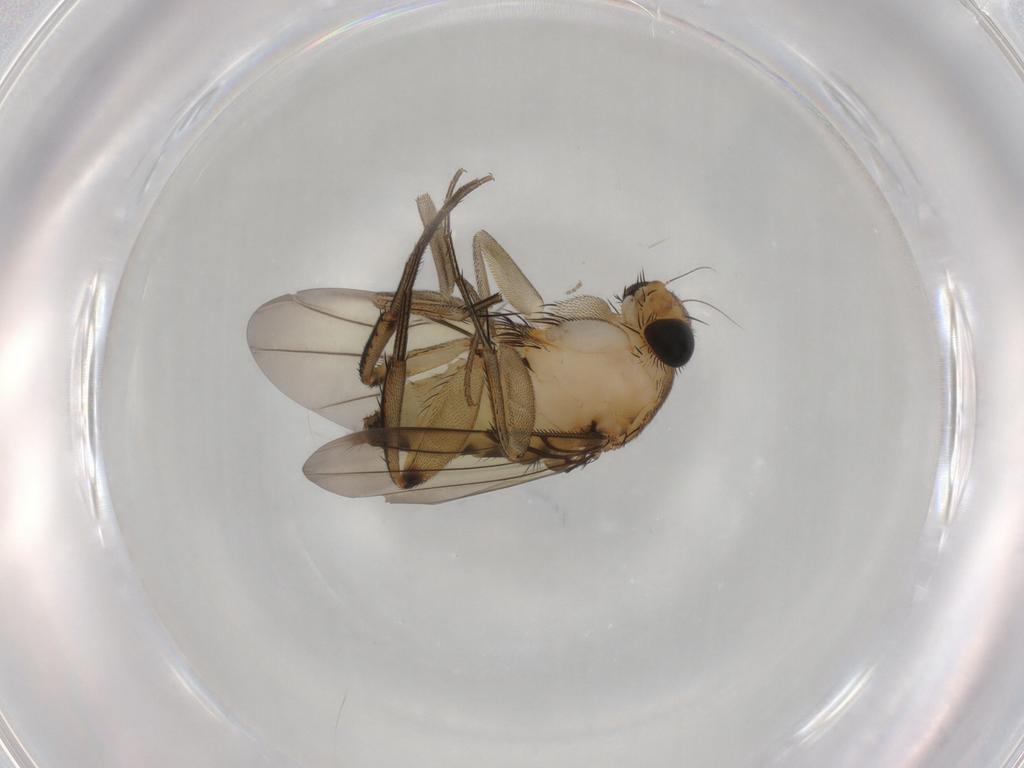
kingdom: Animalia
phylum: Arthropoda
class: Insecta
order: Diptera
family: Phoridae
